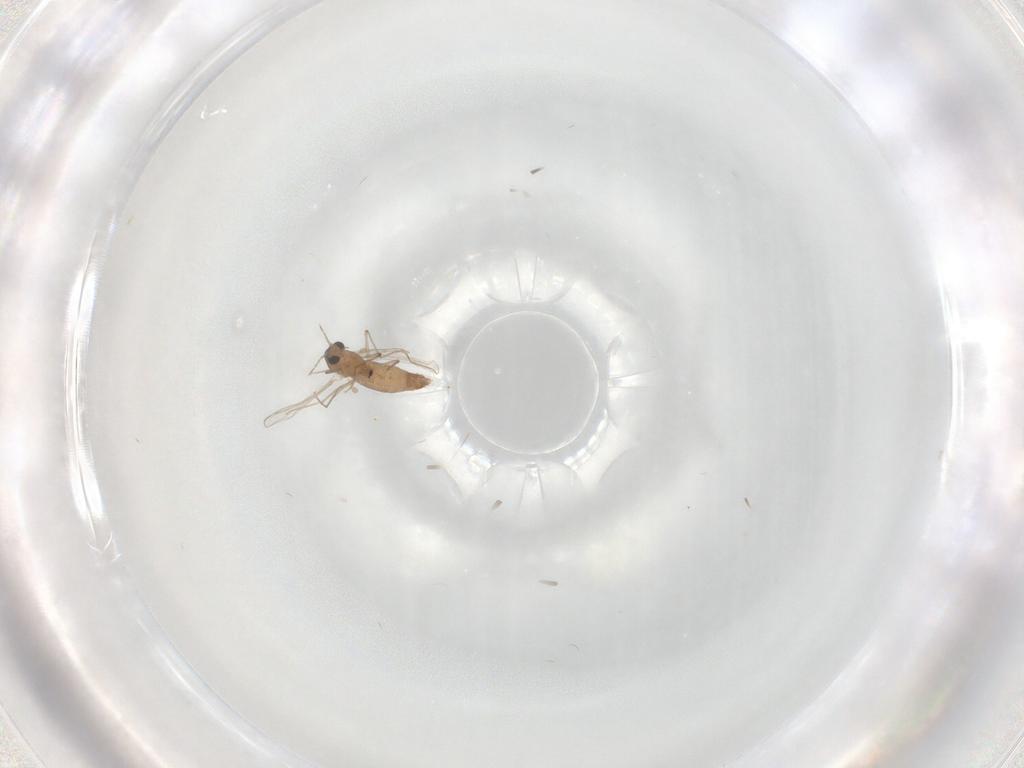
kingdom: Animalia
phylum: Arthropoda
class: Insecta
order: Diptera
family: Chironomidae
